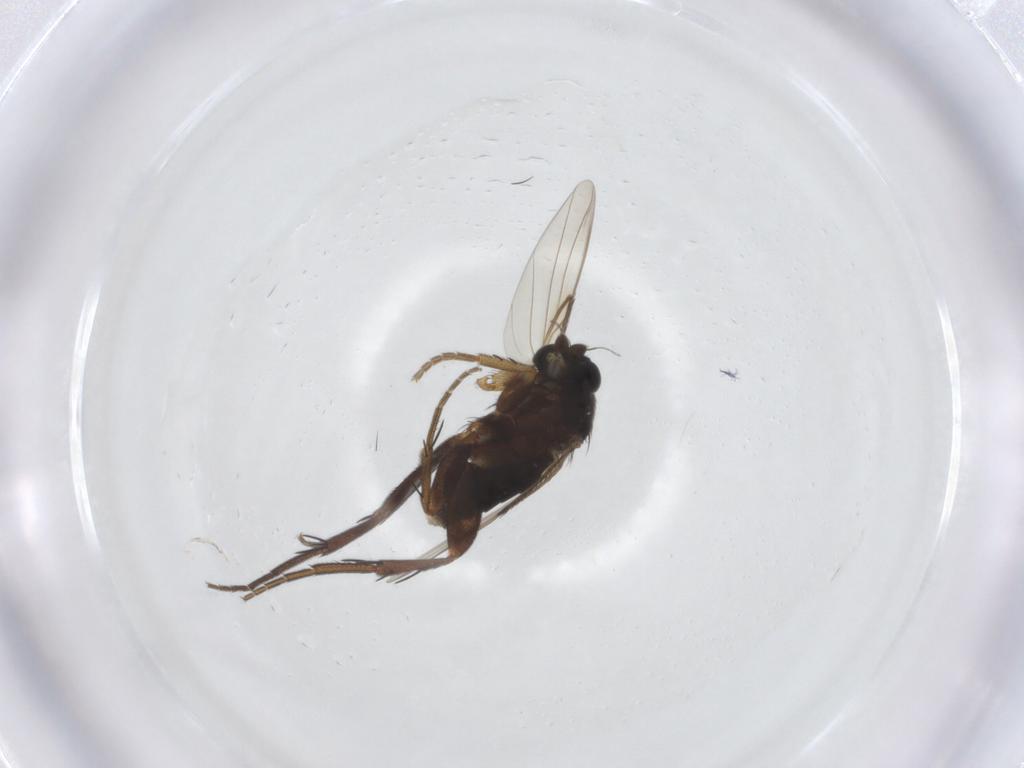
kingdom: Animalia
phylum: Arthropoda
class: Insecta
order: Diptera
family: Phoridae
